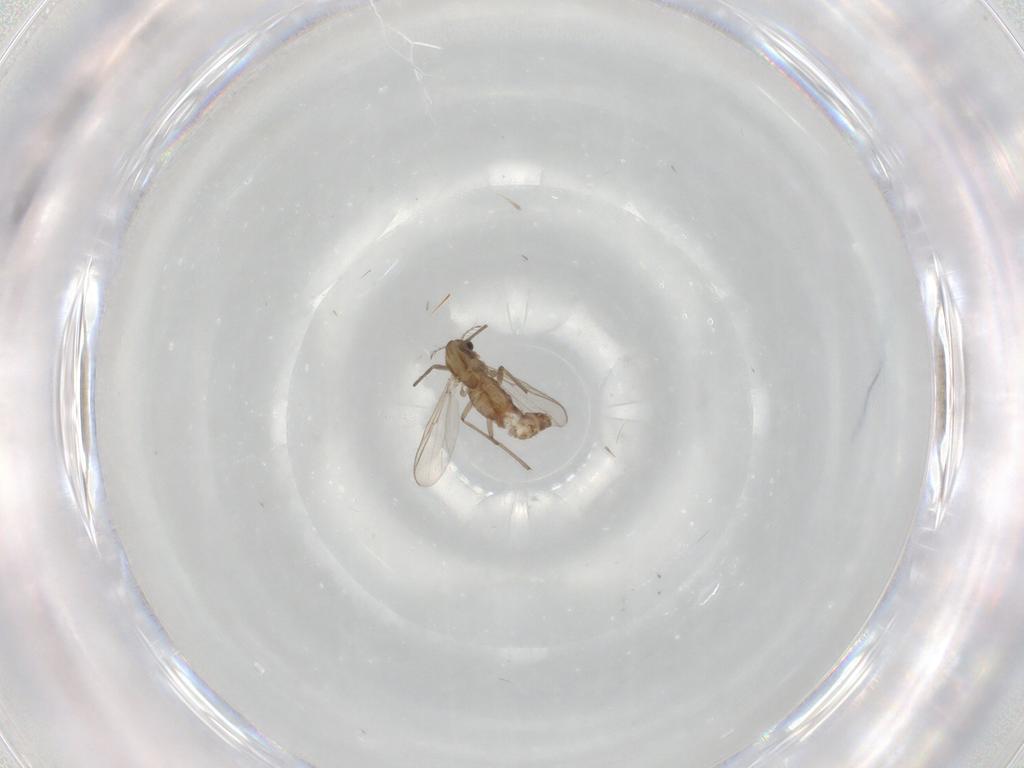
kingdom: Animalia
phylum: Arthropoda
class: Insecta
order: Diptera
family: Chironomidae
